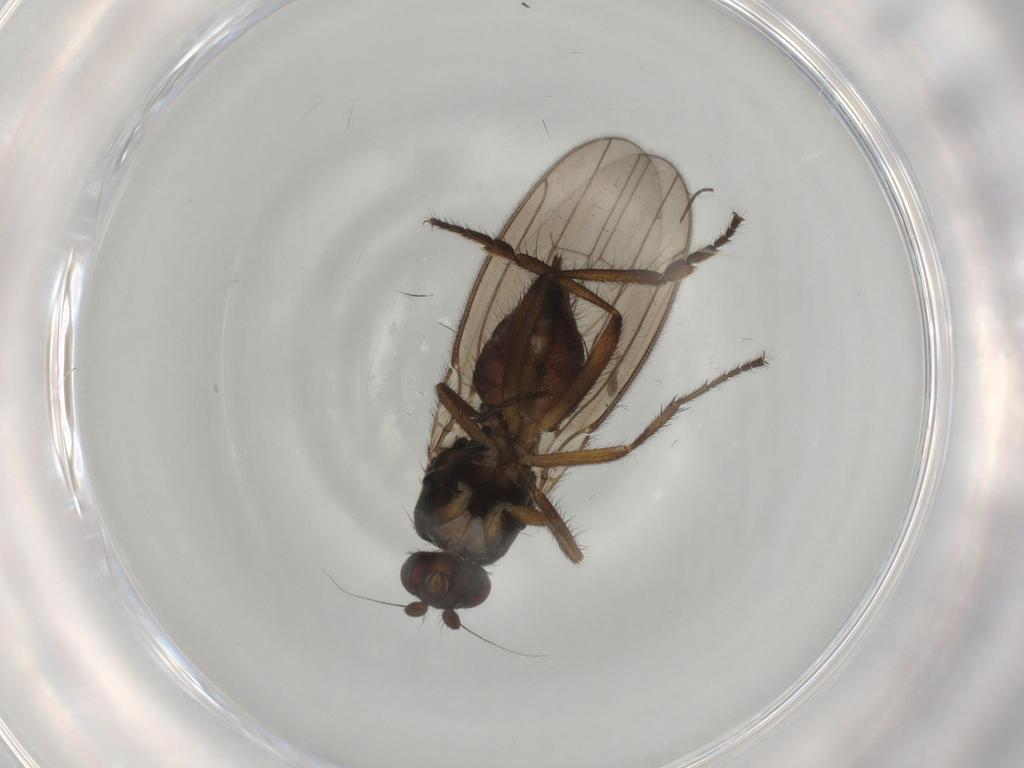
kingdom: Animalia
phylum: Arthropoda
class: Insecta
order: Diptera
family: Sphaeroceridae
